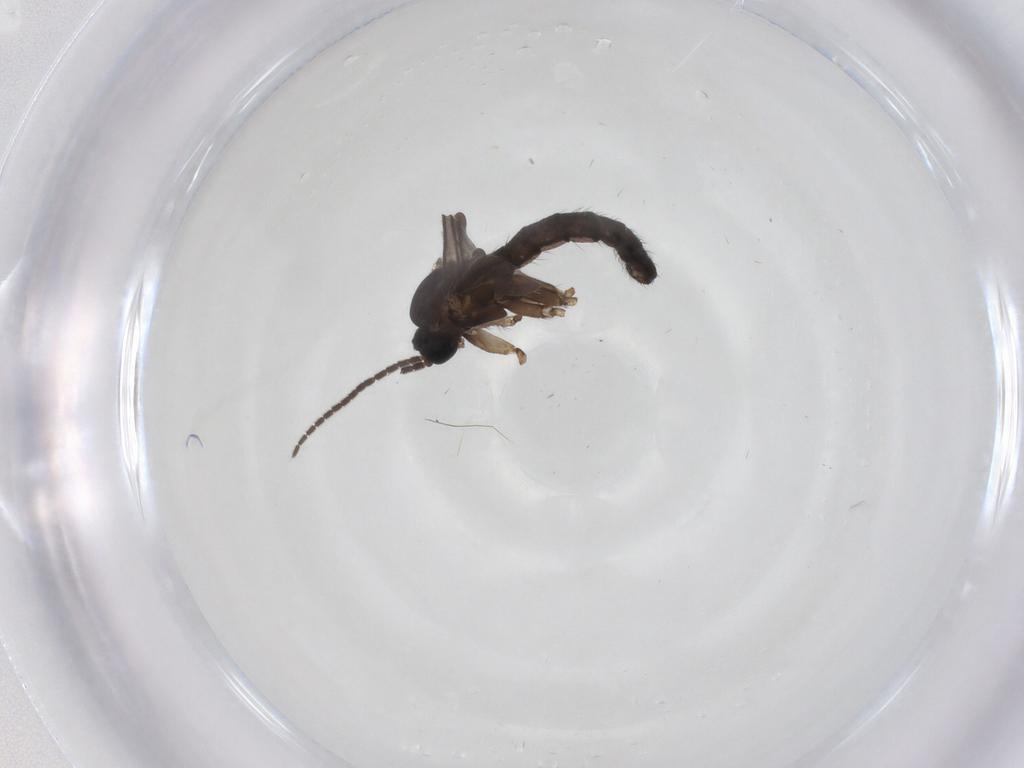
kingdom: Animalia
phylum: Arthropoda
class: Insecta
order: Diptera
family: Sciaridae
